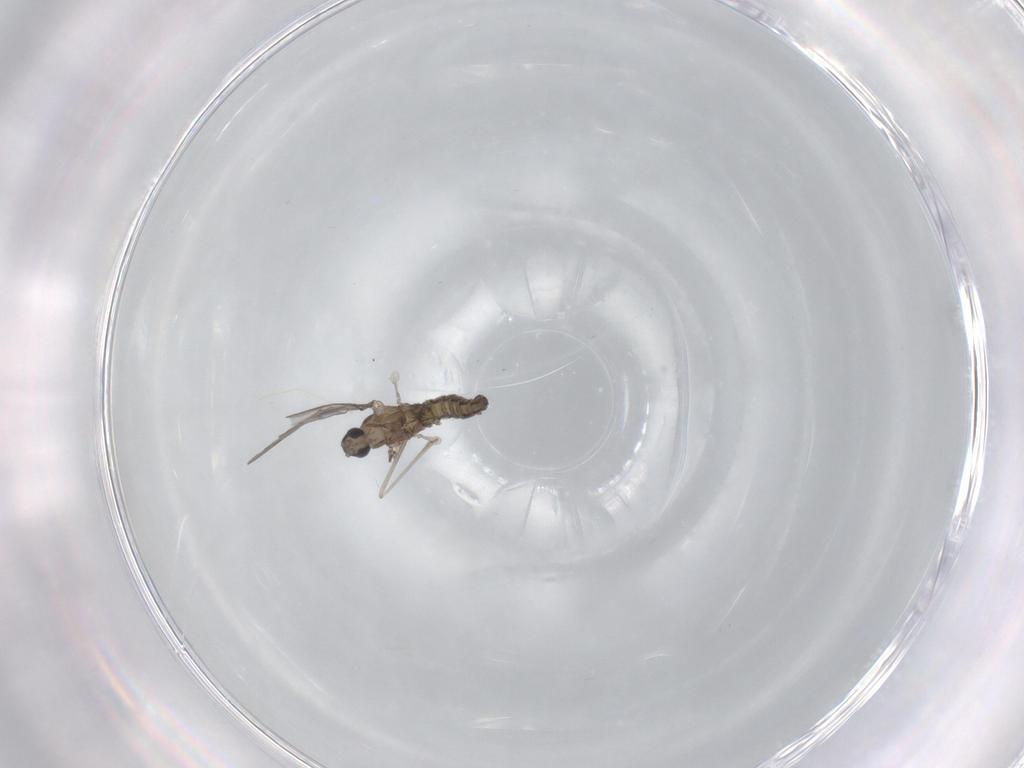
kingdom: Animalia
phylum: Arthropoda
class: Insecta
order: Diptera
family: Cecidomyiidae
